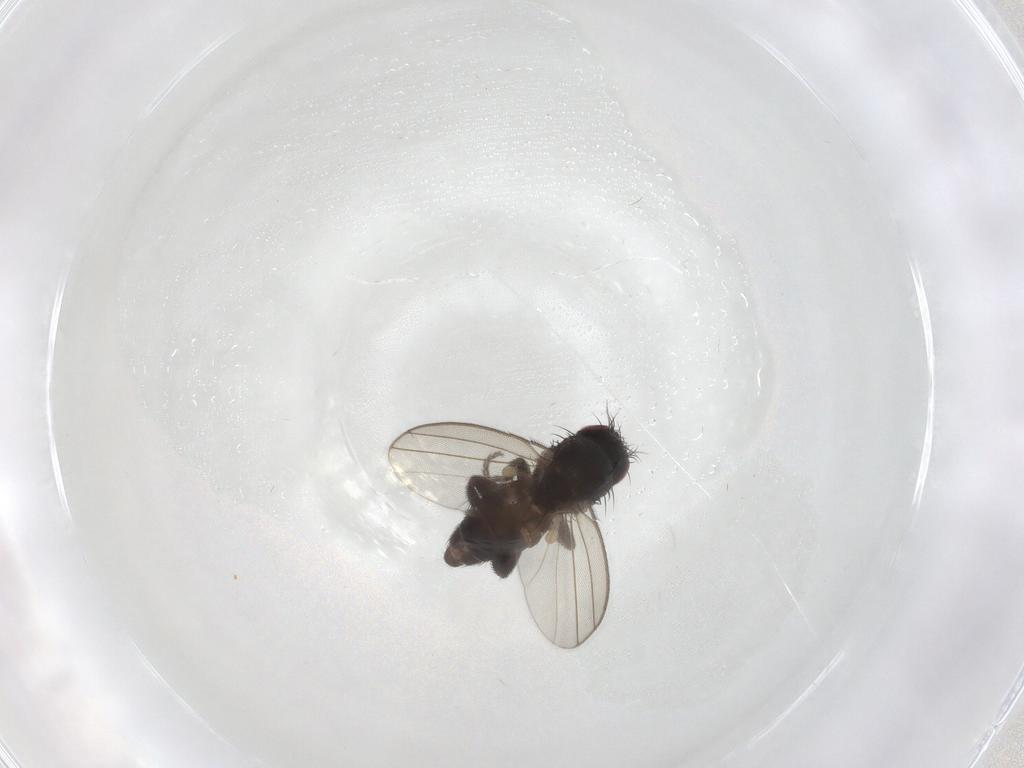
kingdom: Animalia
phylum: Arthropoda
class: Insecta
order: Diptera
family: Milichiidae
